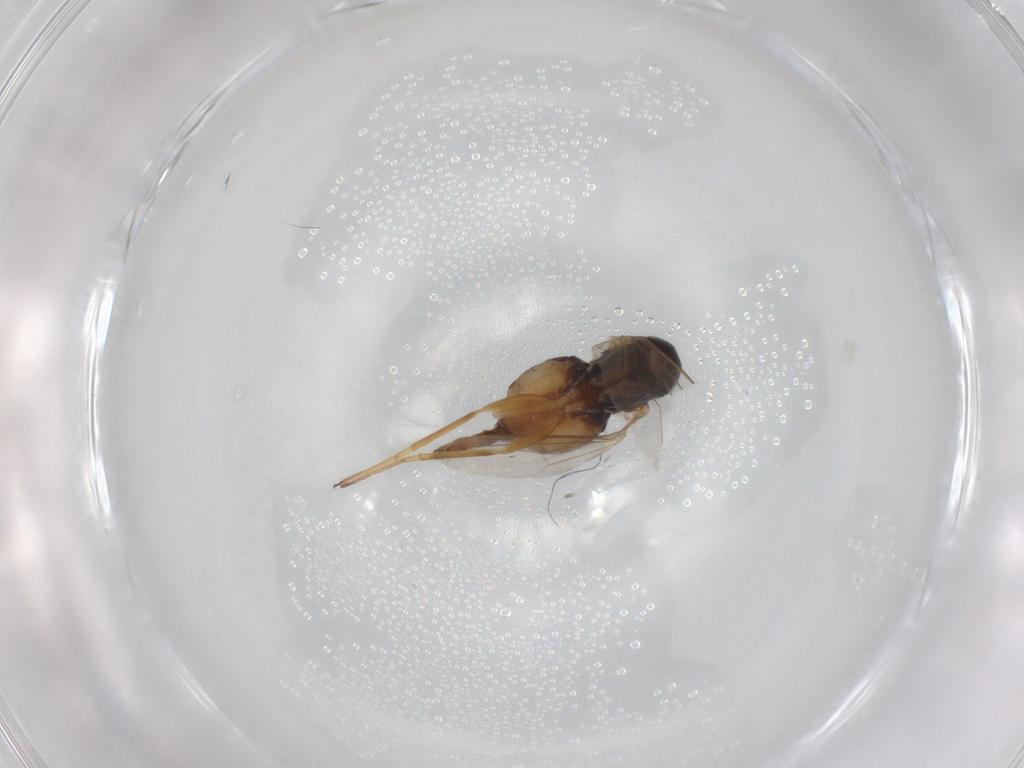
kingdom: Animalia
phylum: Arthropoda
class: Insecta
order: Diptera
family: Dolichopodidae
